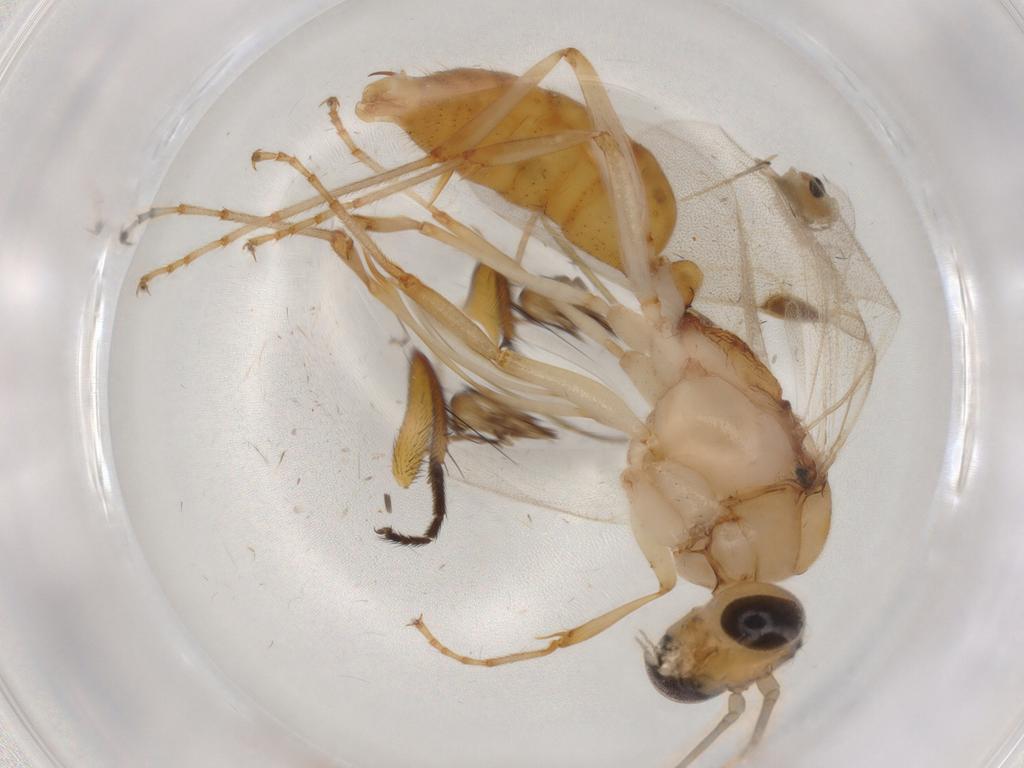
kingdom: Animalia
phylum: Arthropoda
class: Insecta
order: Hymenoptera
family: Formicidae
